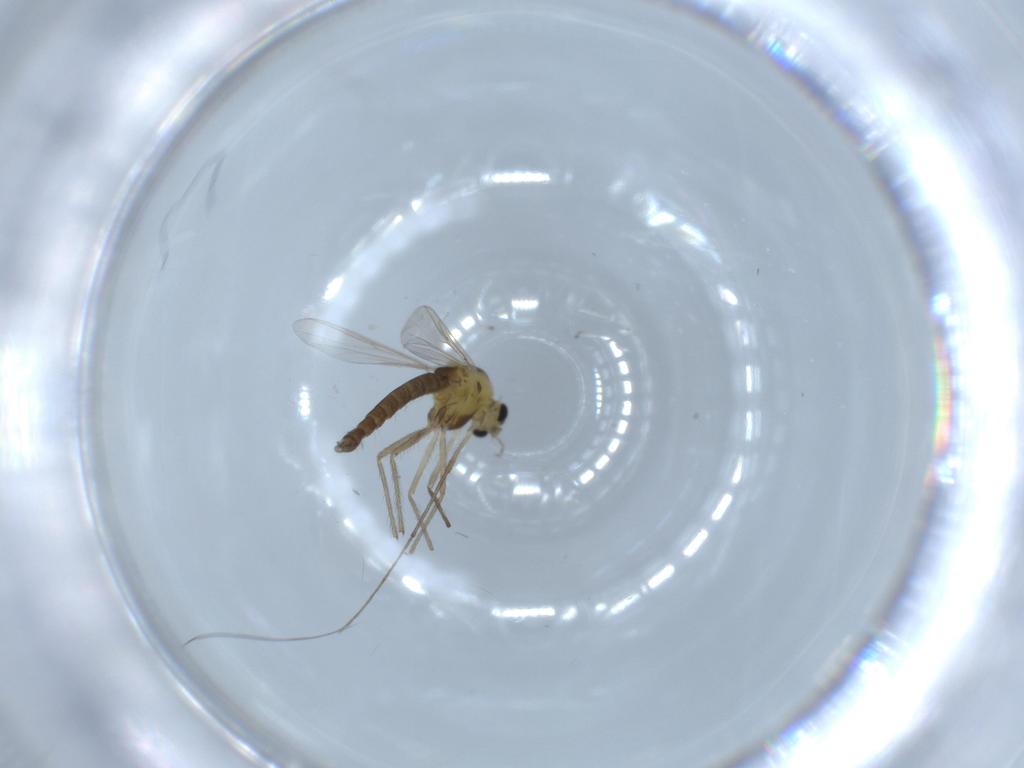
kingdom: Animalia
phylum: Arthropoda
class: Insecta
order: Diptera
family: Chironomidae
